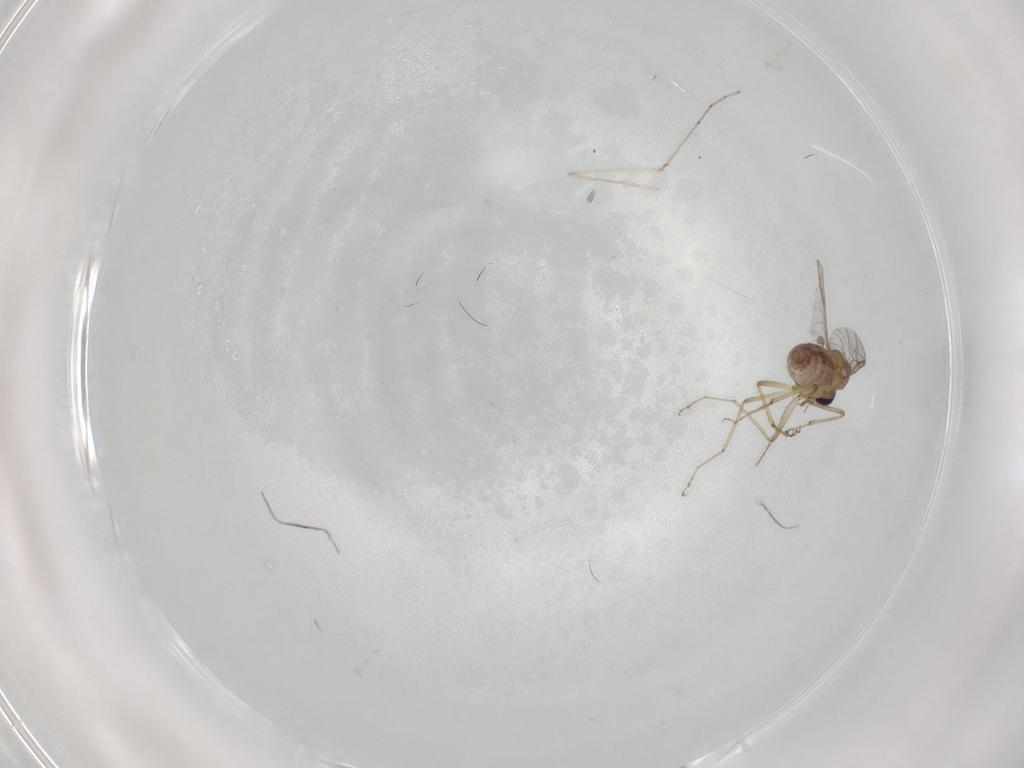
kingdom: Animalia
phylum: Arthropoda
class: Insecta
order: Diptera
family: Ceratopogonidae
